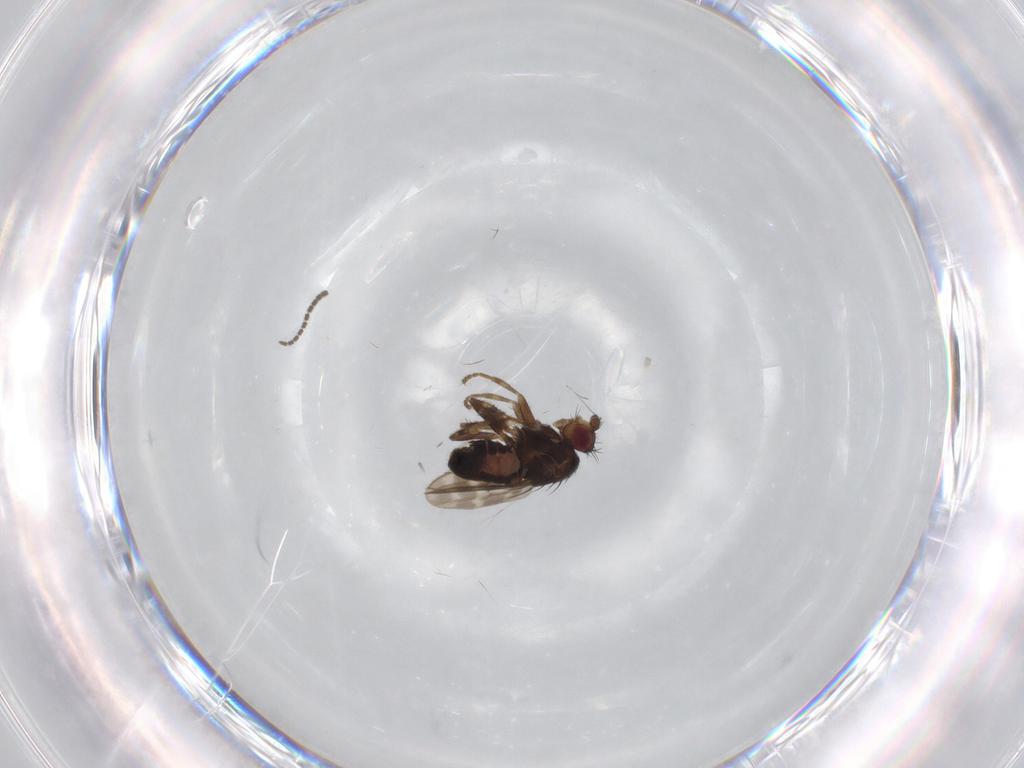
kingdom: Animalia
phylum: Arthropoda
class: Insecta
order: Diptera
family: Sphaeroceridae
